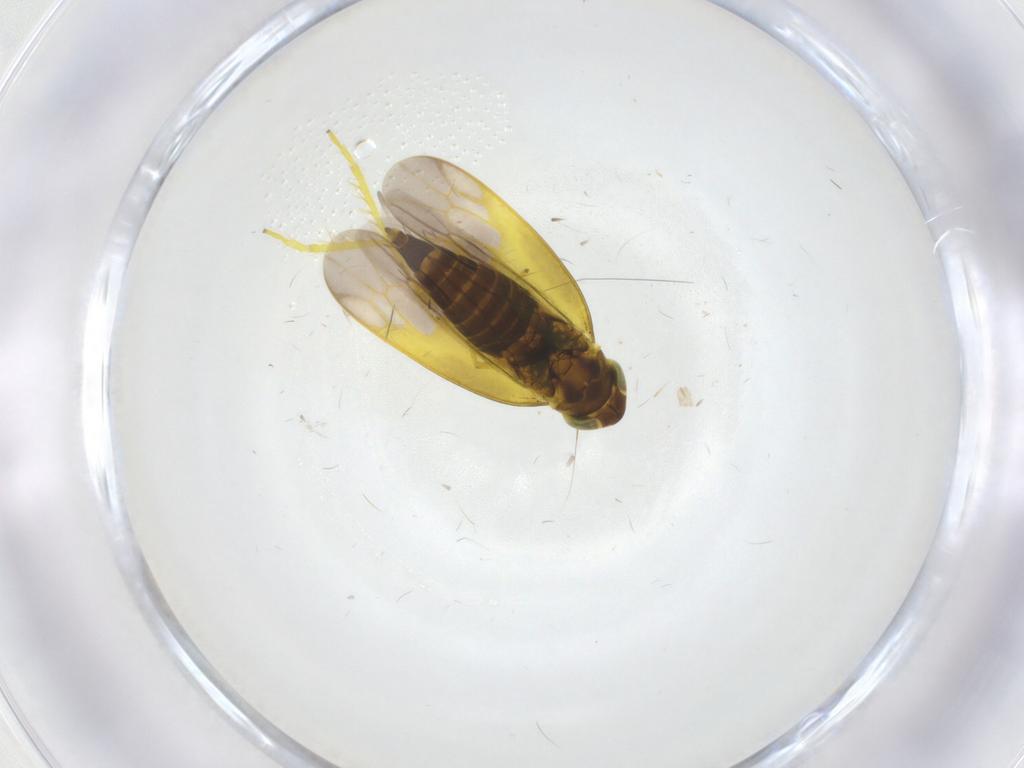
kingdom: Animalia
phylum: Arthropoda
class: Insecta
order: Hemiptera
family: Cicadellidae
